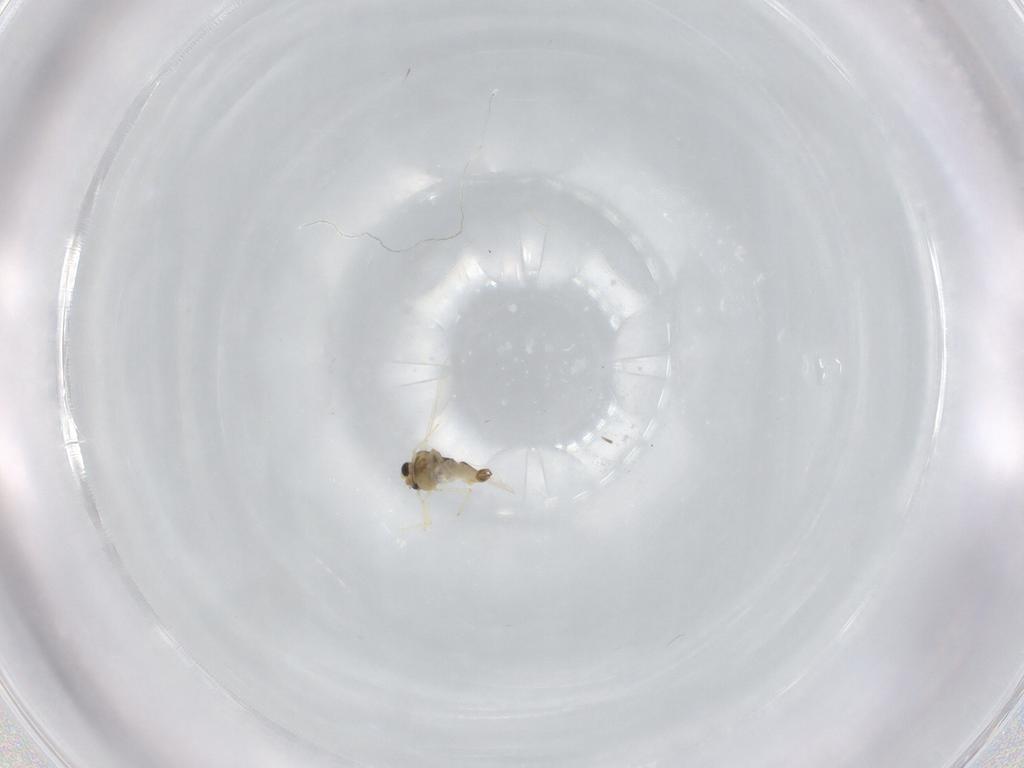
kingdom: Animalia
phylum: Arthropoda
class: Insecta
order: Diptera
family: Chironomidae
